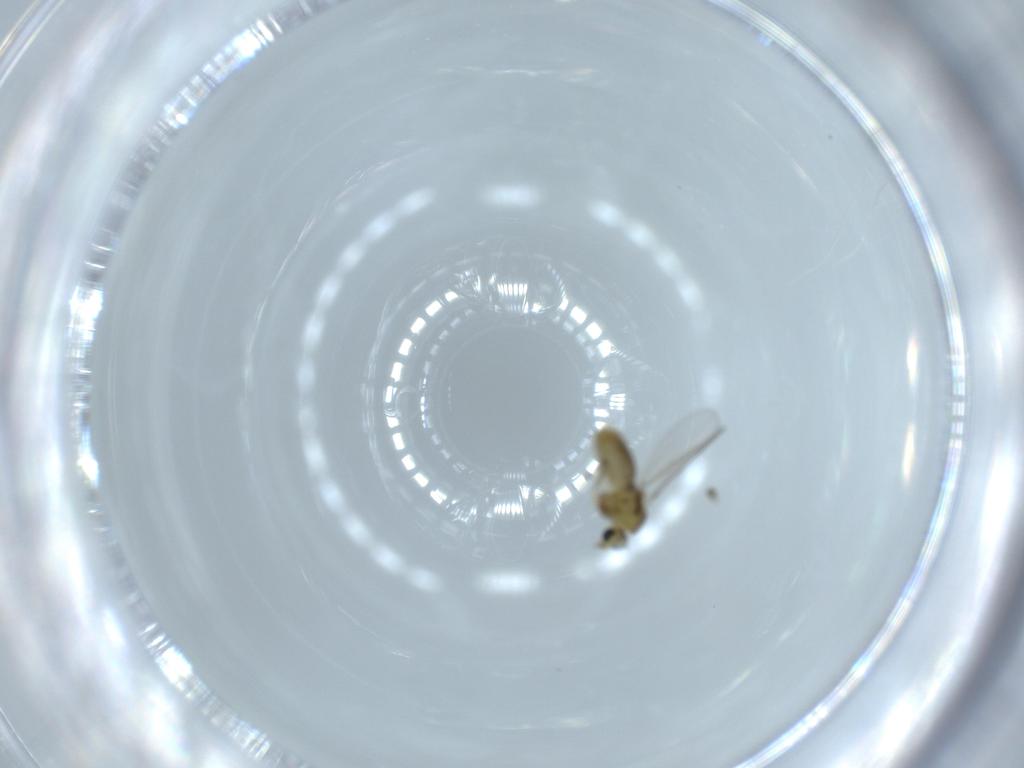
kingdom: Animalia
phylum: Arthropoda
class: Insecta
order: Diptera
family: Chironomidae
